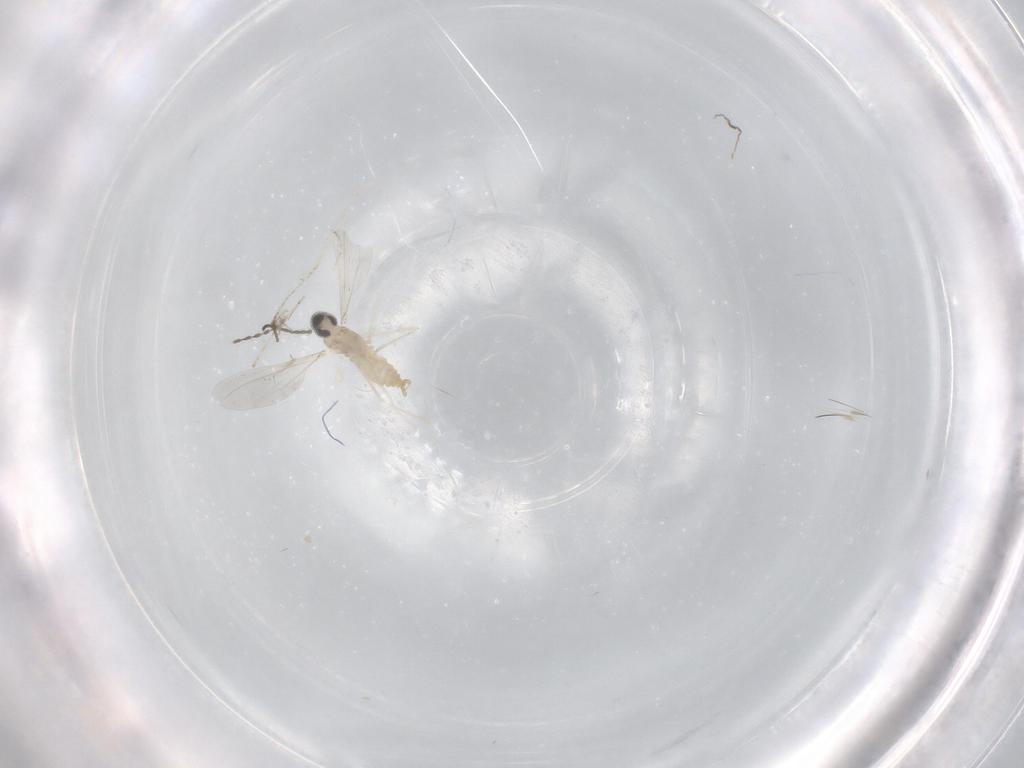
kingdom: Animalia
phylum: Arthropoda
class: Insecta
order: Diptera
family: Cecidomyiidae
